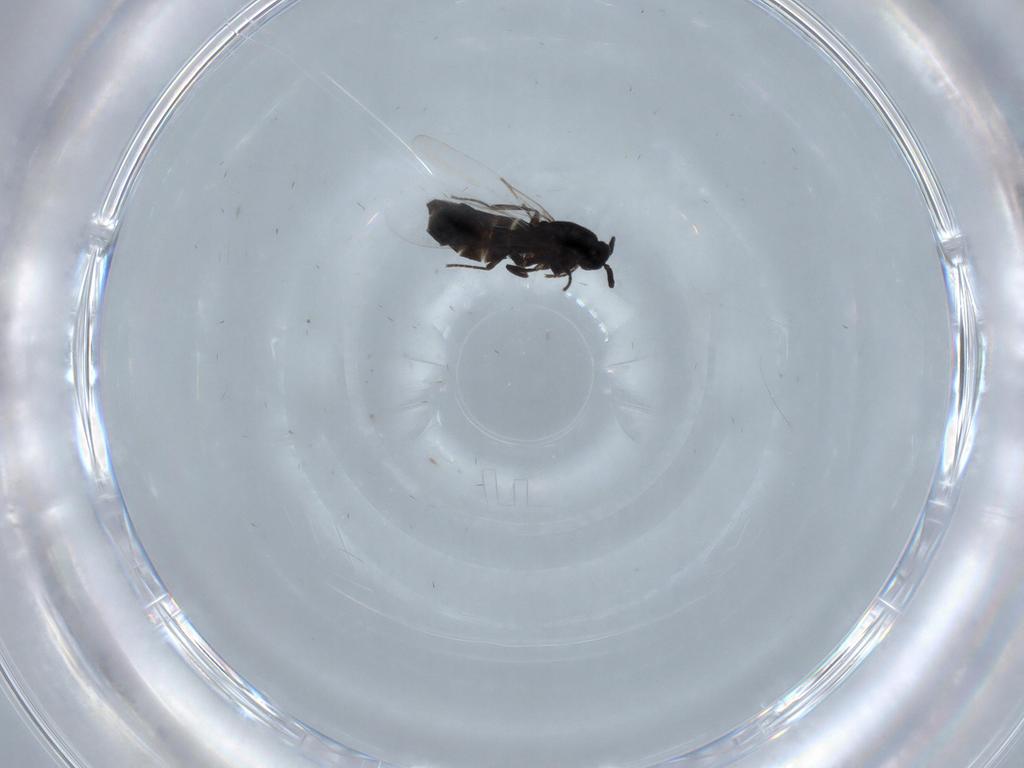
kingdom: Animalia
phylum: Arthropoda
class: Insecta
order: Diptera
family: Scatopsidae
